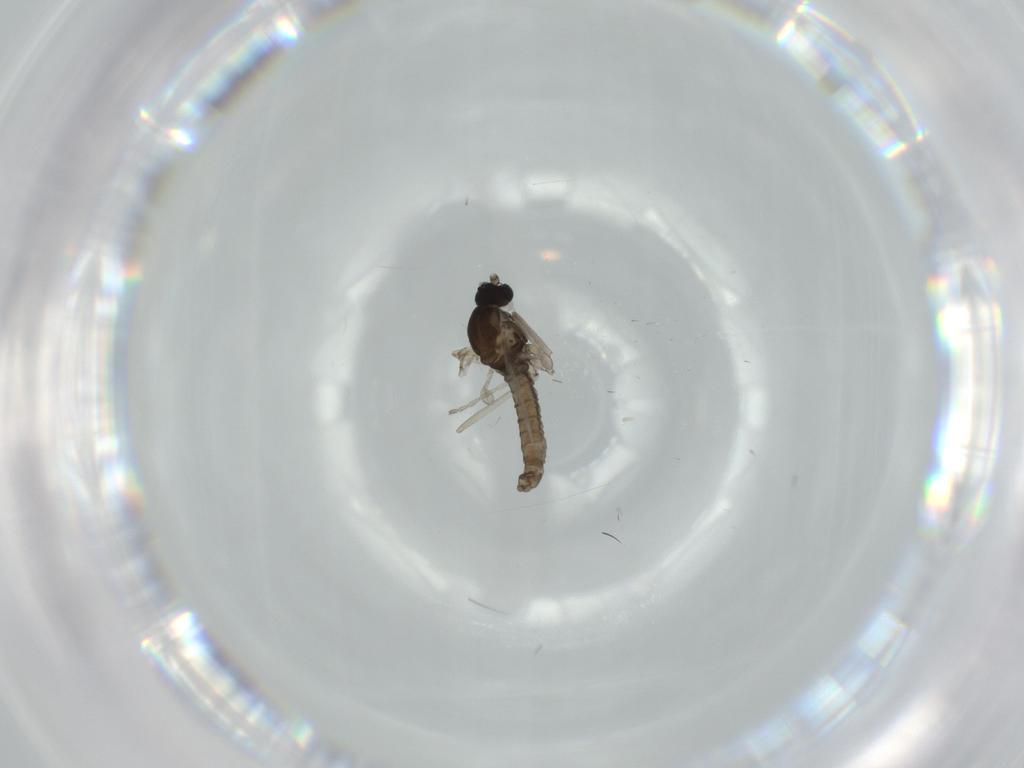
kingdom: Animalia
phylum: Arthropoda
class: Insecta
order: Diptera
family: Cecidomyiidae
